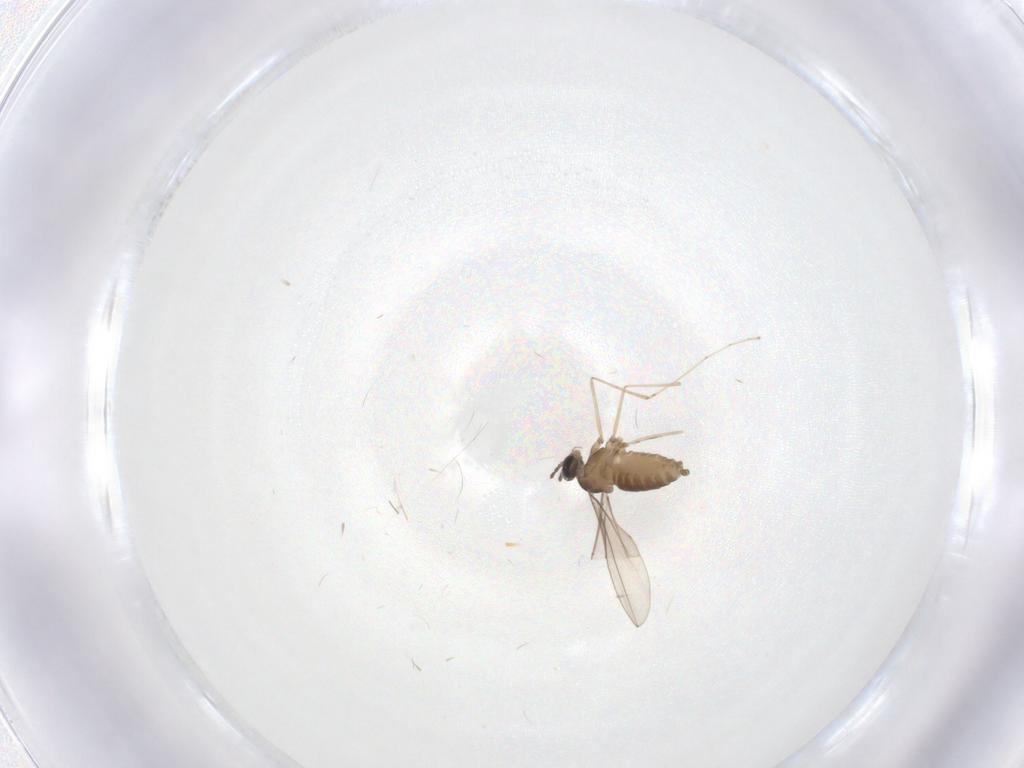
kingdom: Animalia
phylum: Arthropoda
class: Insecta
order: Diptera
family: Cecidomyiidae
